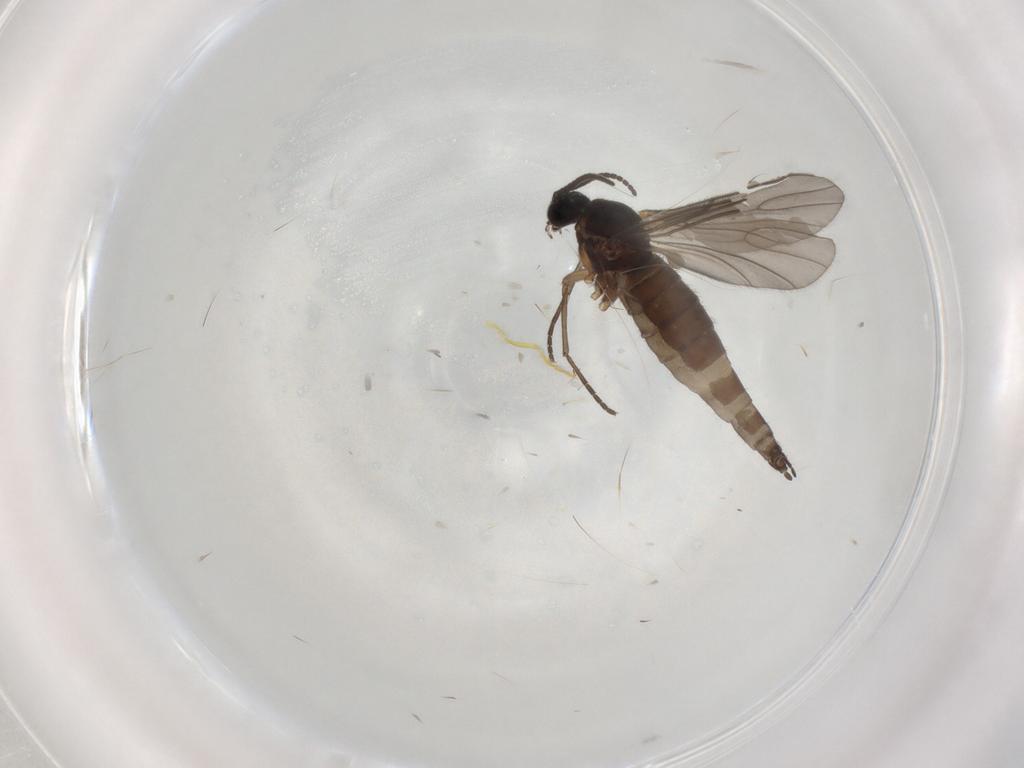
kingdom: Animalia
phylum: Arthropoda
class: Insecta
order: Diptera
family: Sciaridae
